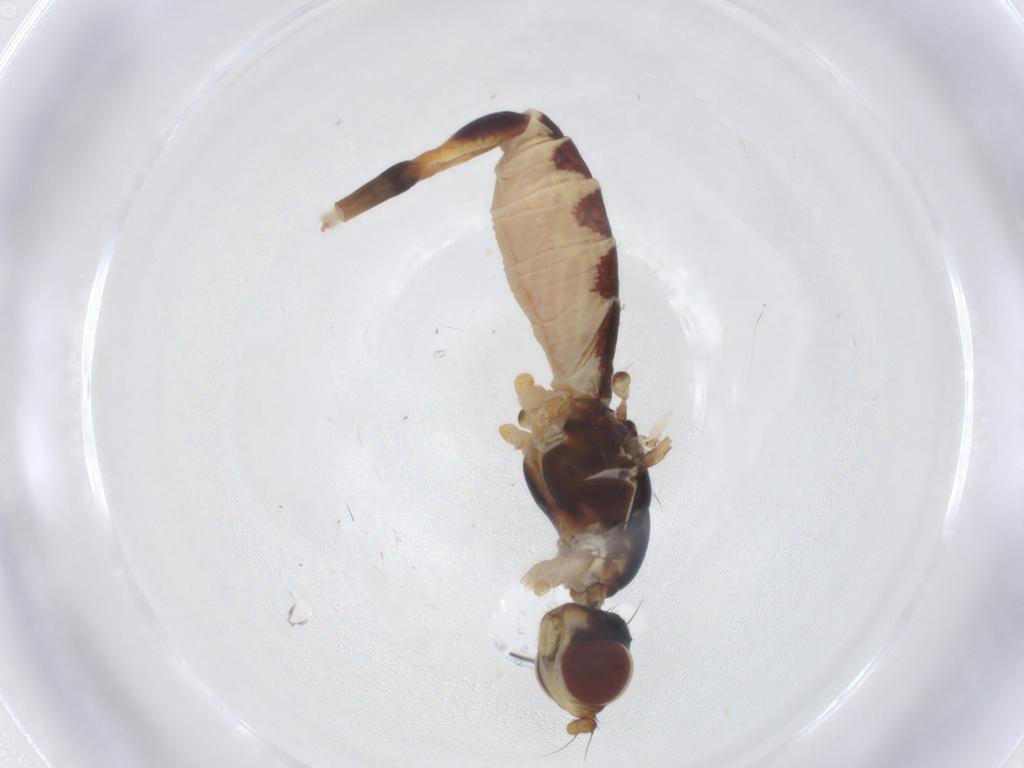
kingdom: Animalia
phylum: Arthropoda
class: Insecta
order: Diptera
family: Micropezidae
